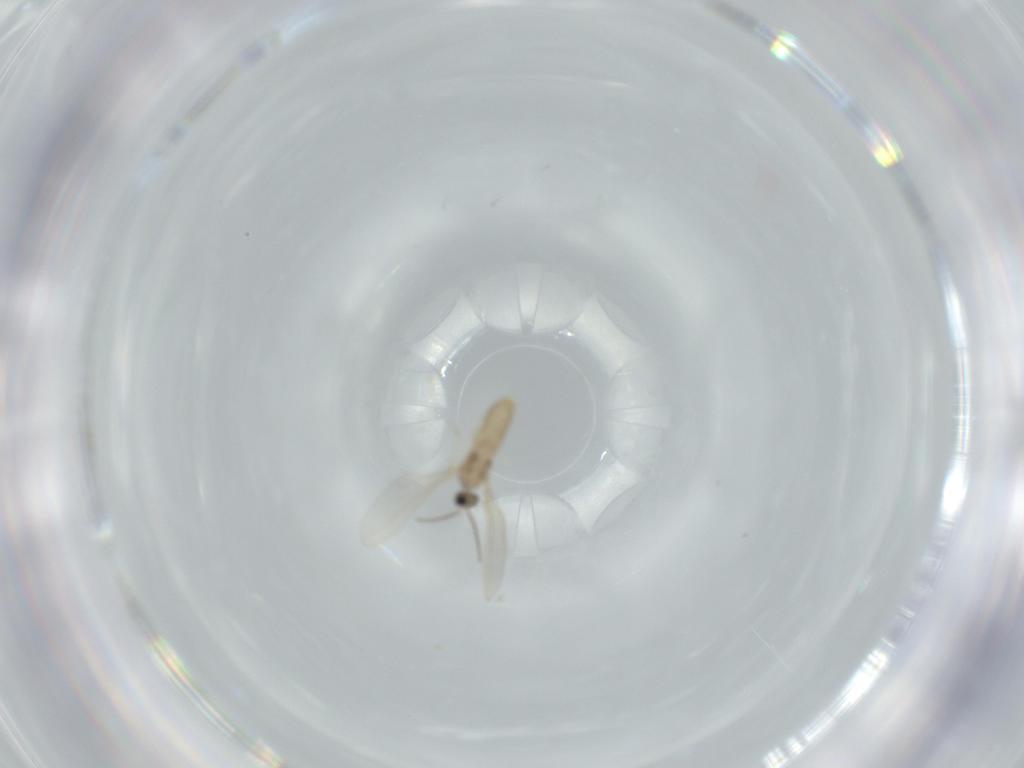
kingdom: Animalia
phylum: Arthropoda
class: Insecta
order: Diptera
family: Cecidomyiidae
